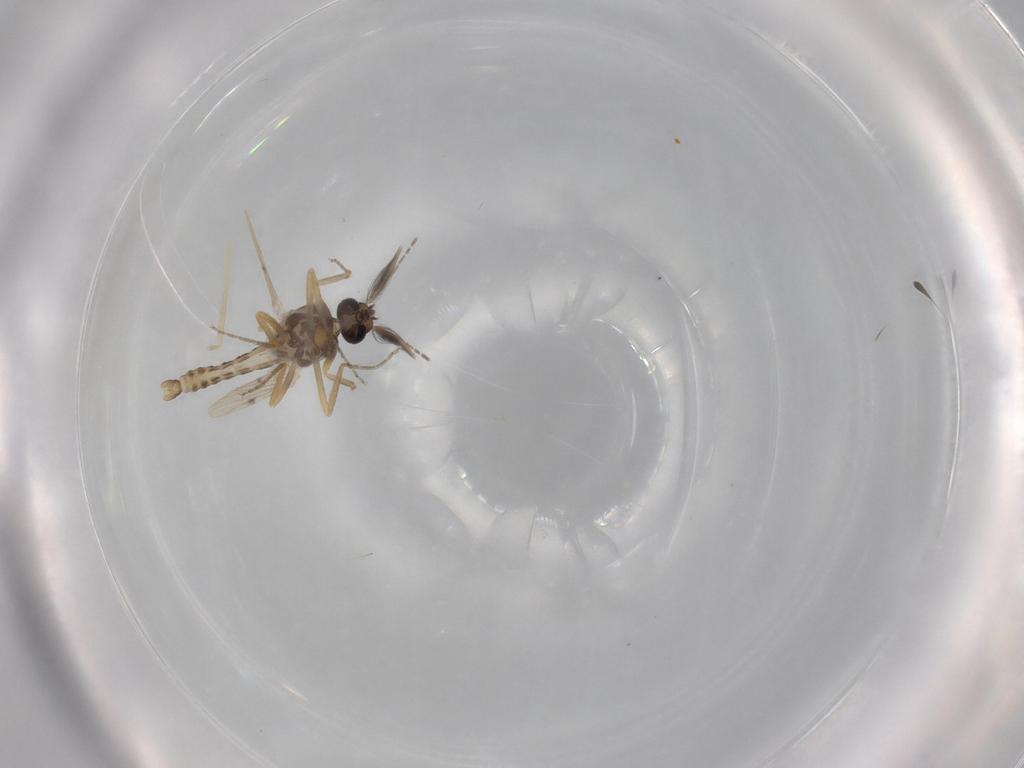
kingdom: Animalia
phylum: Arthropoda
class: Insecta
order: Diptera
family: Ceratopogonidae
